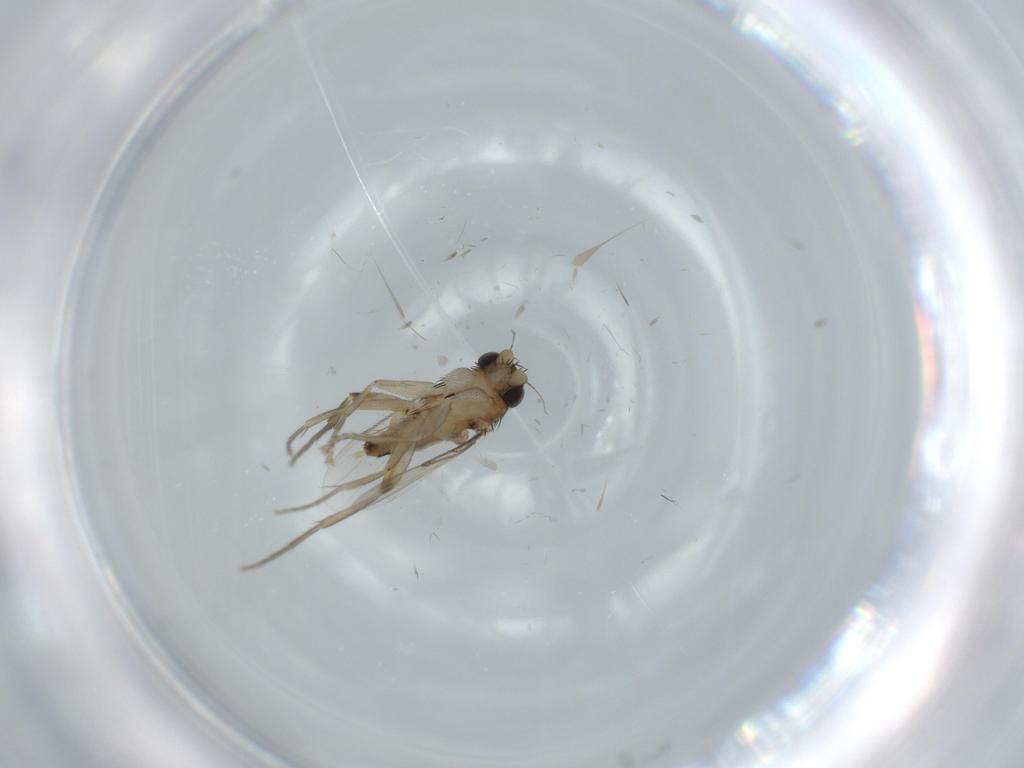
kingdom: Animalia
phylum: Arthropoda
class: Insecta
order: Diptera
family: Phoridae
